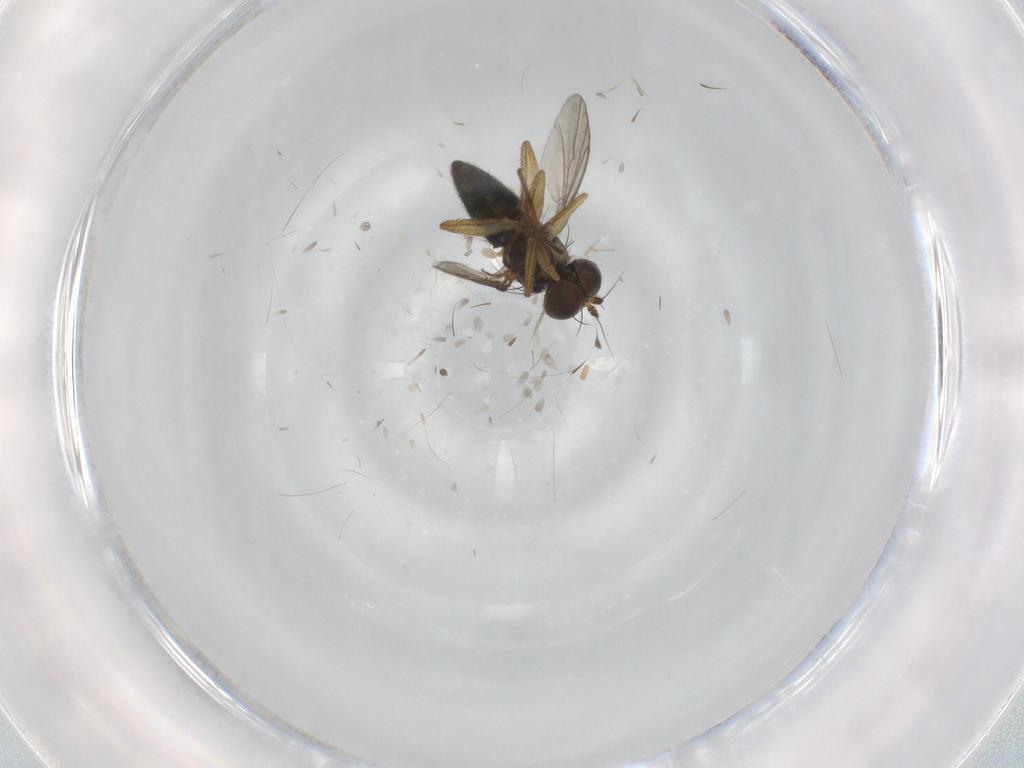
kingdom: Animalia
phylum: Arthropoda
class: Insecta
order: Diptera
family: Chironomidae
